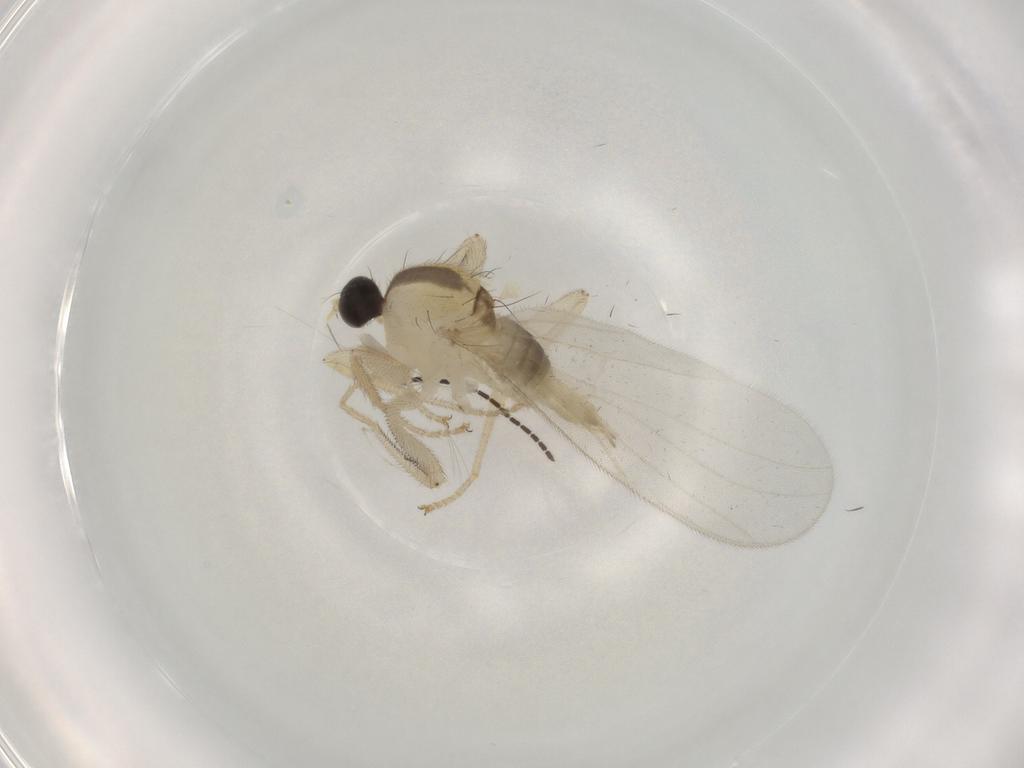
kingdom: Animalia
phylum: Arthropoda
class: Insecta
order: Diptera
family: Hybotidae
